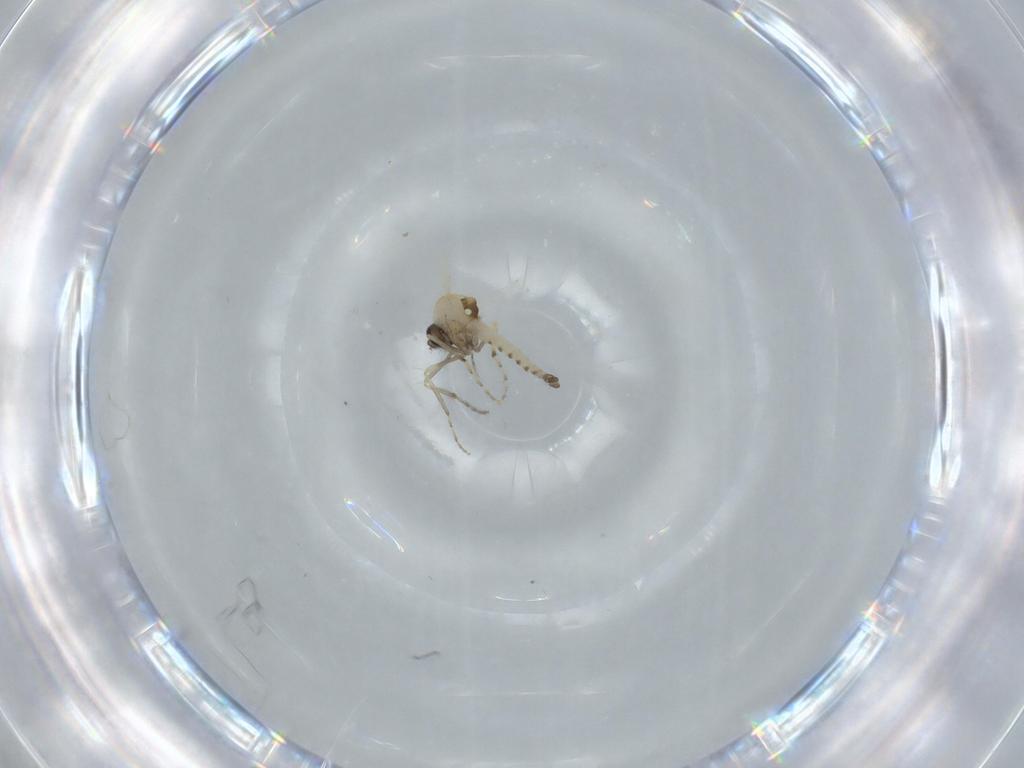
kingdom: Animalia
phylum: Arthropoda
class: Insecta
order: Diptera
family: Ceratopogonidae
